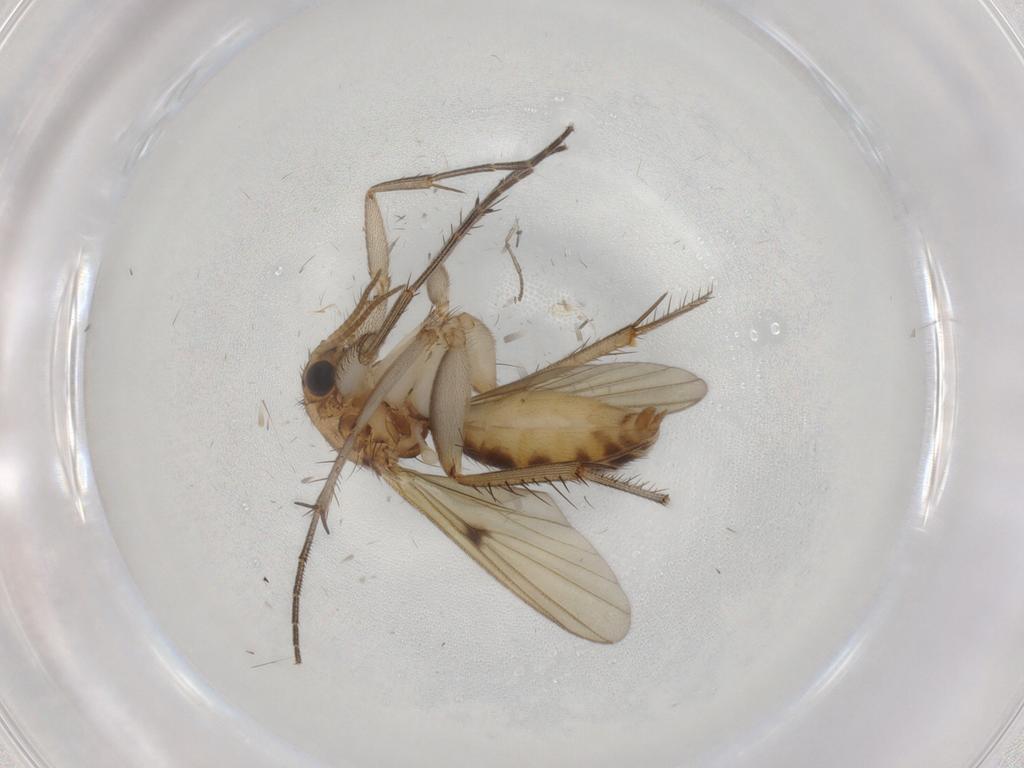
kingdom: Animalia
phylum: Arthropoda
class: Insecta
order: Diptera
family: Psychodidae
